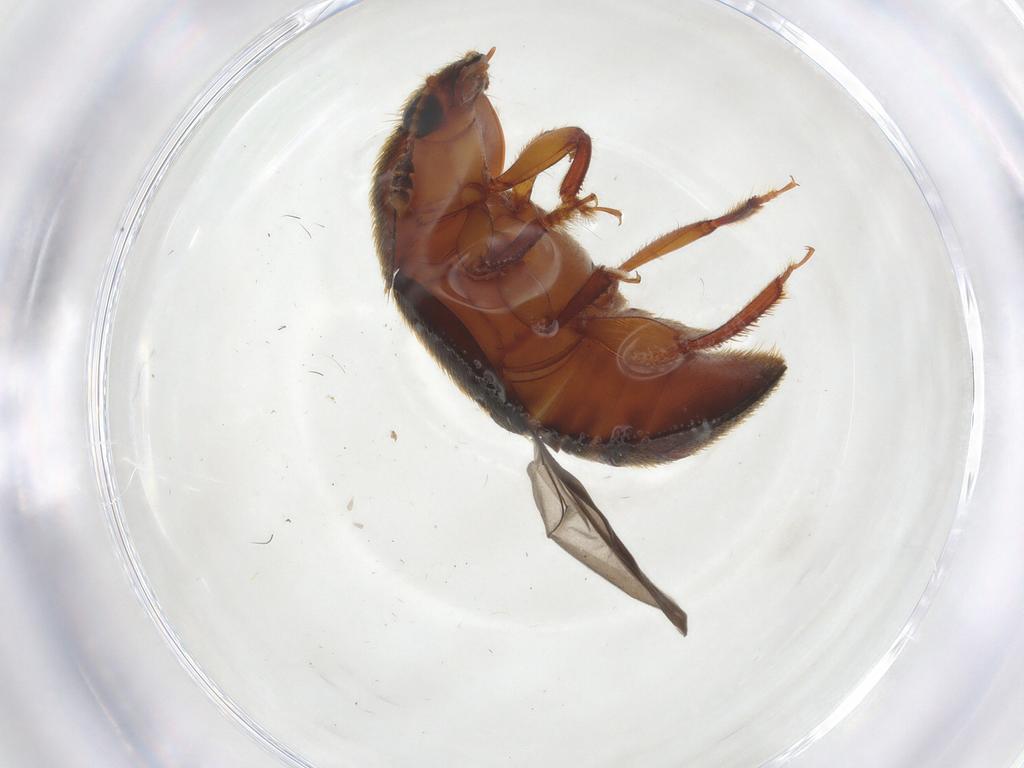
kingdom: Animalia
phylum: Arthropoda
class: Insecta
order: Coleoptera
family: Nitidulidae
